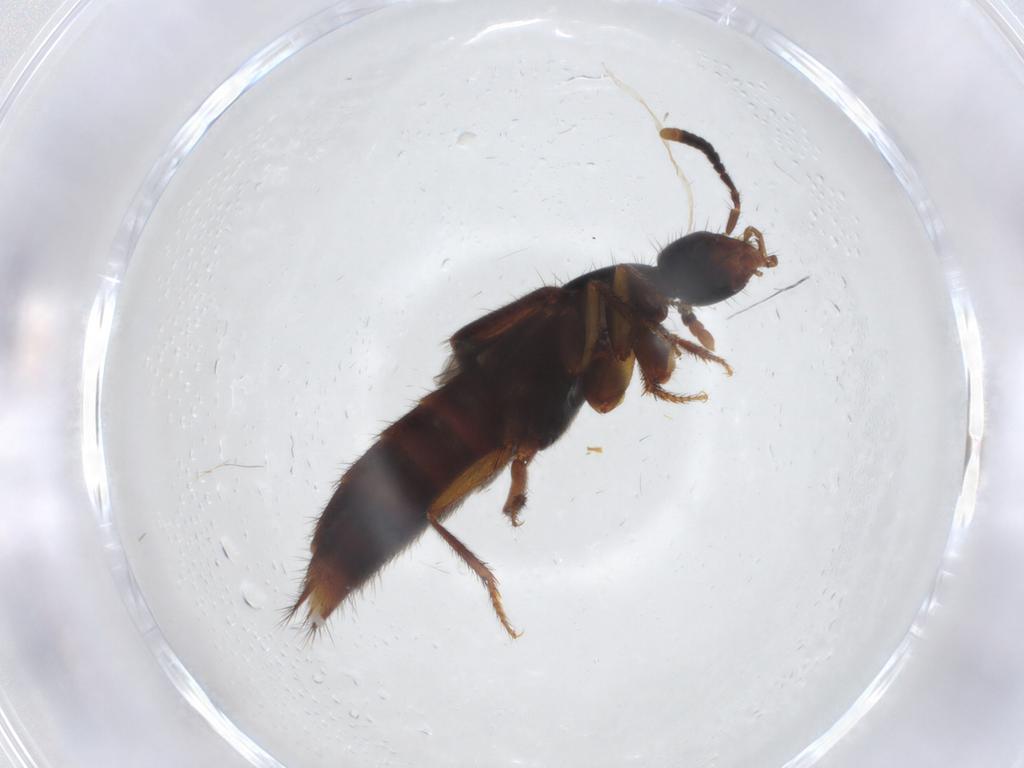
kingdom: Animalia
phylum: Arthropoda
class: Insecta
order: Coleoptera
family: Staphylinidae
